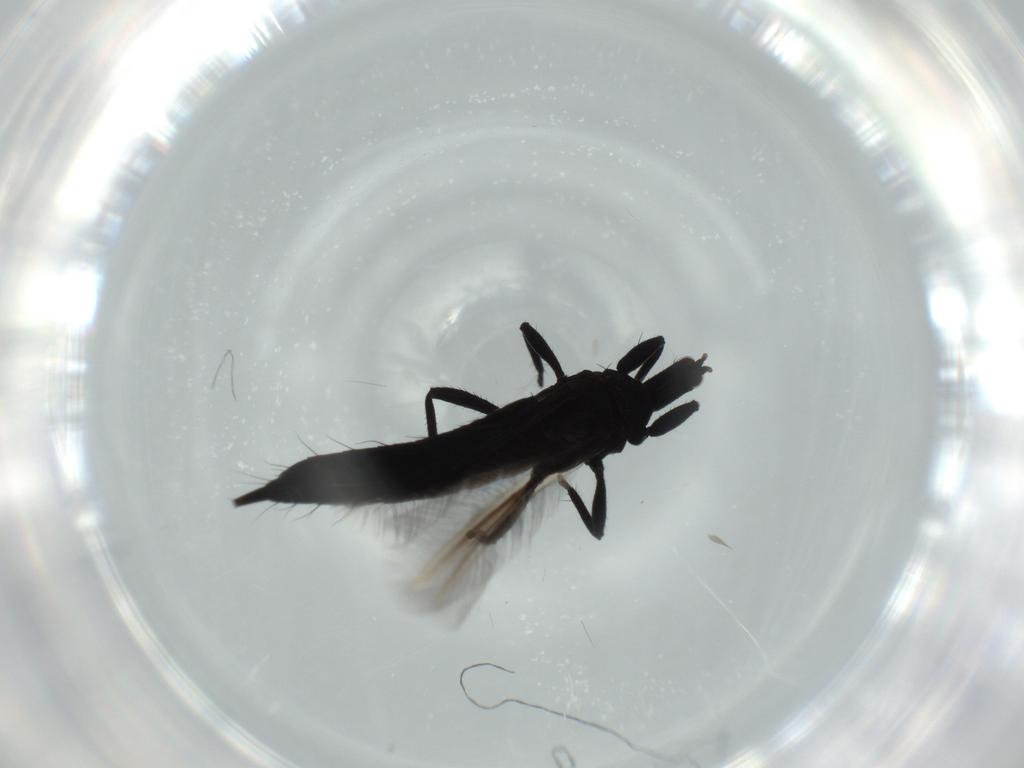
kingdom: Animalia
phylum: Arthropoda
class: Insecta
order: Thysanoptera
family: Phlaeothripidae
